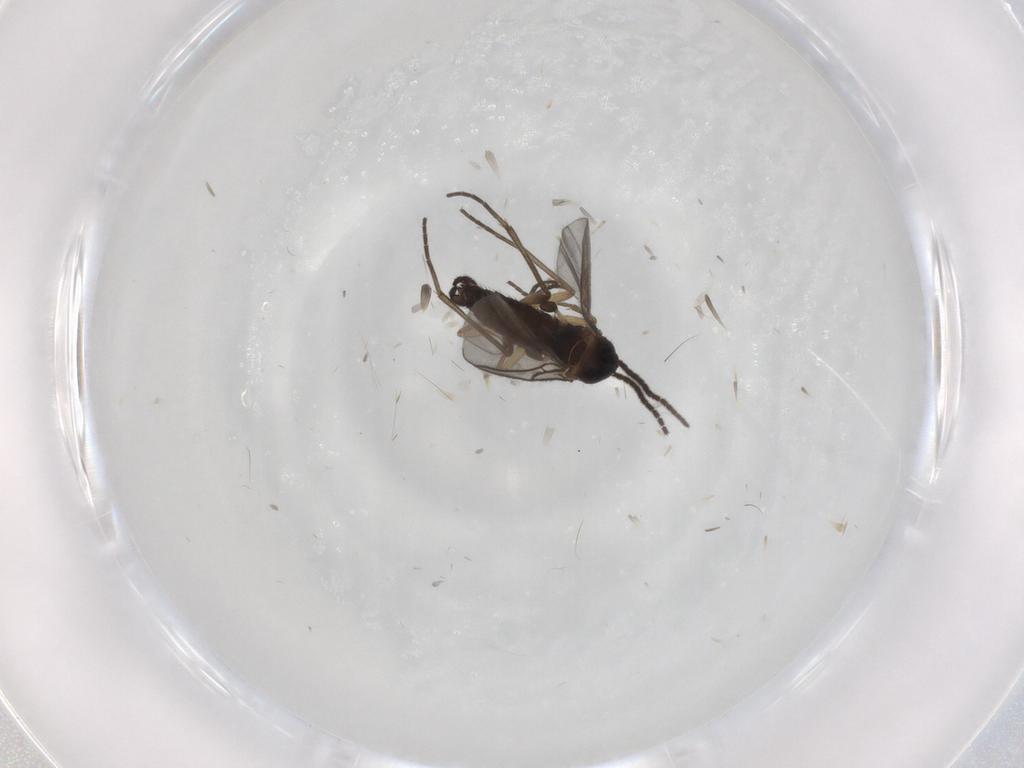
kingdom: Animalia
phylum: Arthropoda
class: Insecta
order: Diptera
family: Sciaridae
